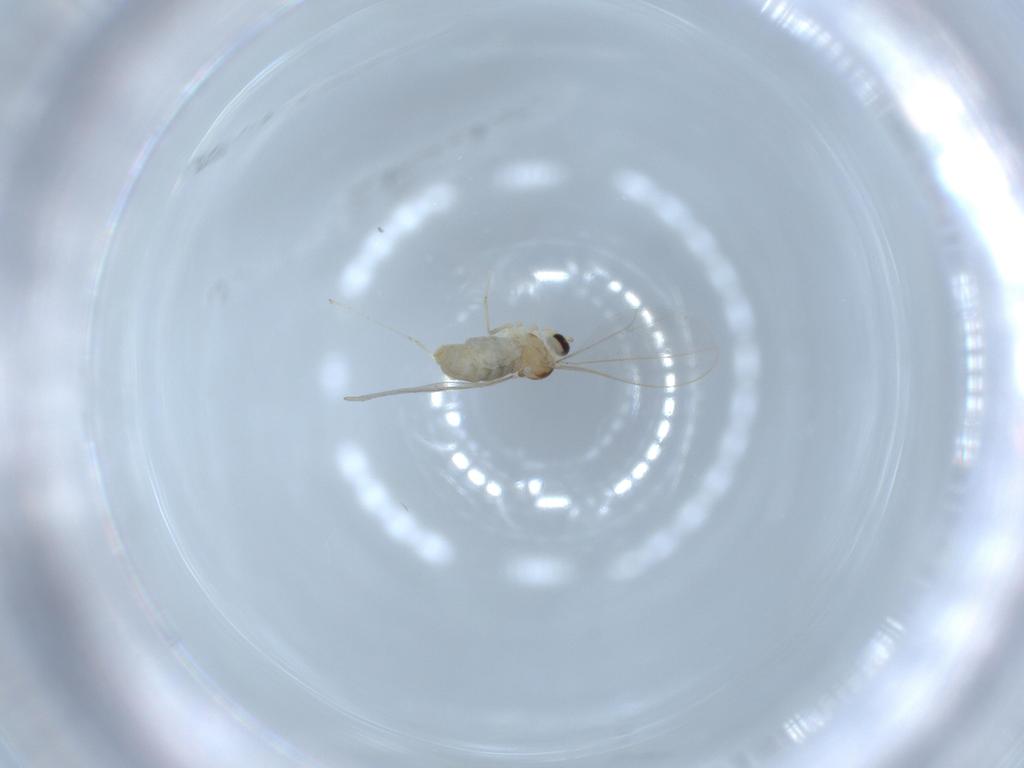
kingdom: Animalia
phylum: Arthropoda
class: Insecta
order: Diptera
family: Cecidomyiidae
